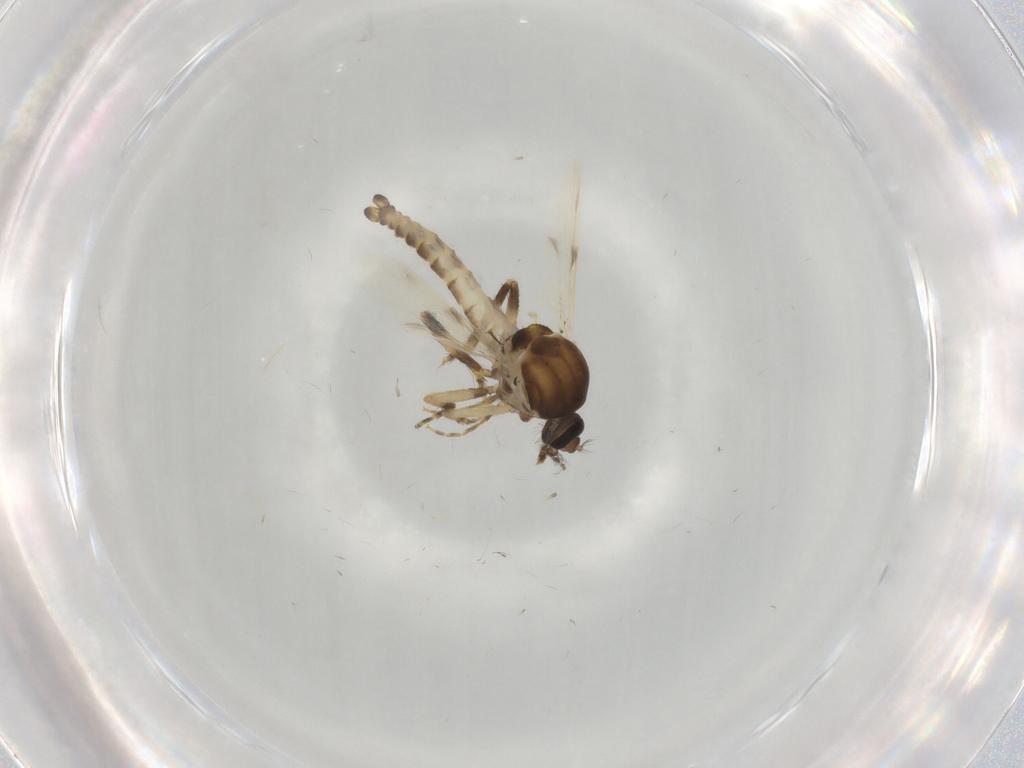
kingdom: Animalia
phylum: Arthropoda
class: Insecta
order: Diptera
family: Ceratopogonidae
